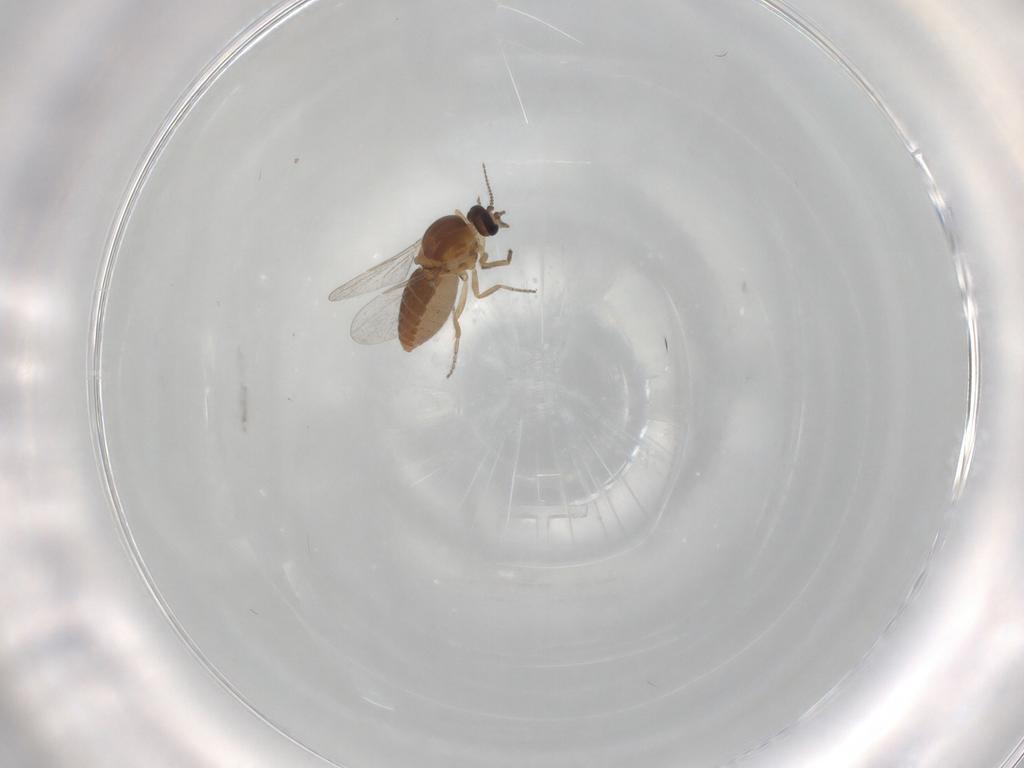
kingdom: Animalia
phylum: Arthropoda
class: Insecta
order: Diptera
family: Ceratopogonidae
